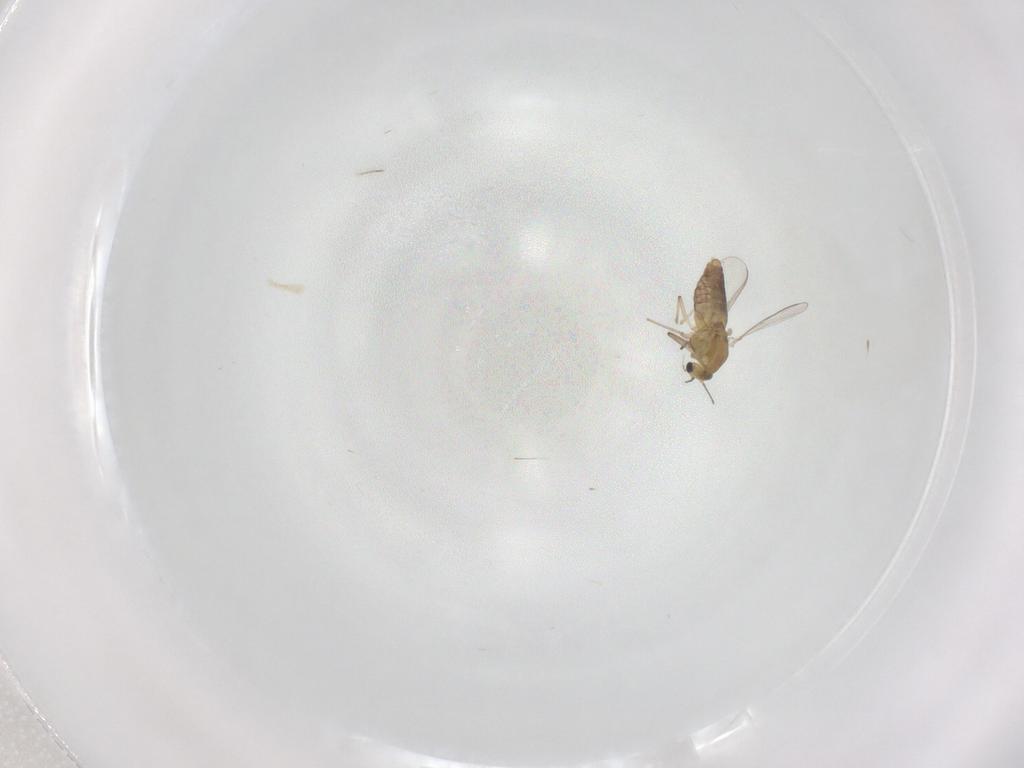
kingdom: Animalia
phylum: Arthropoda
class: Insecta
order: Diptera
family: Chironomidae
